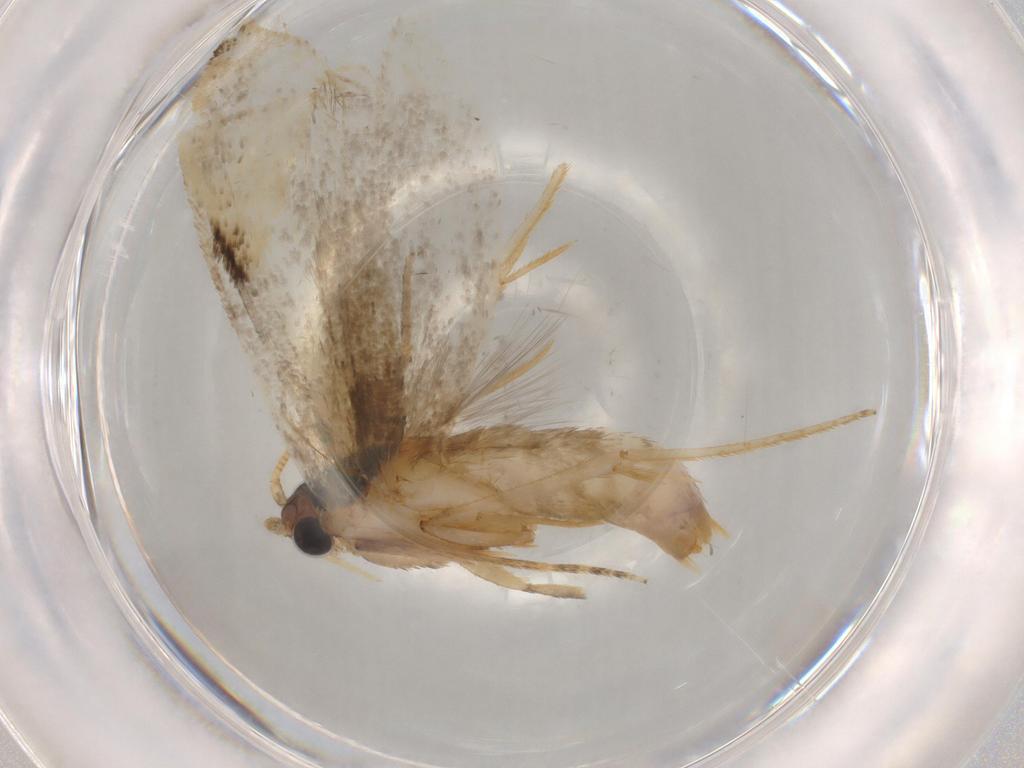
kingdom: Animalia
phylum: Arthropoda
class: Insecta
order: Lepidoptera
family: Tineidae
